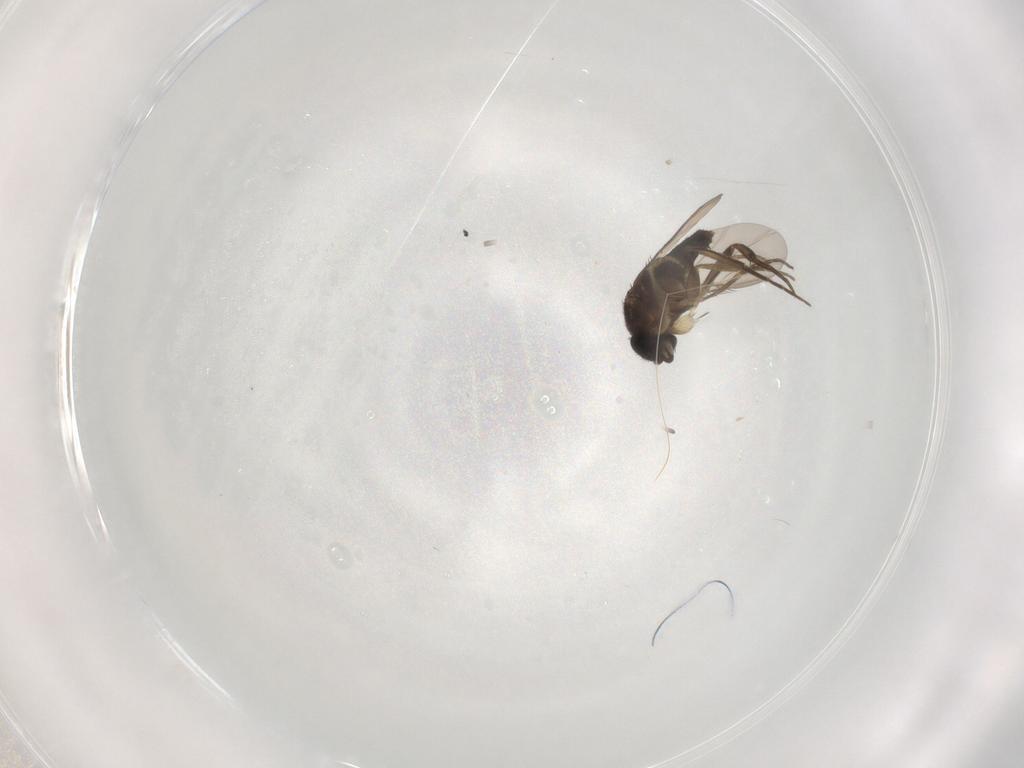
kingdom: Animalia
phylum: Arthropoda
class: Insecta
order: Diptera
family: Phoridae
